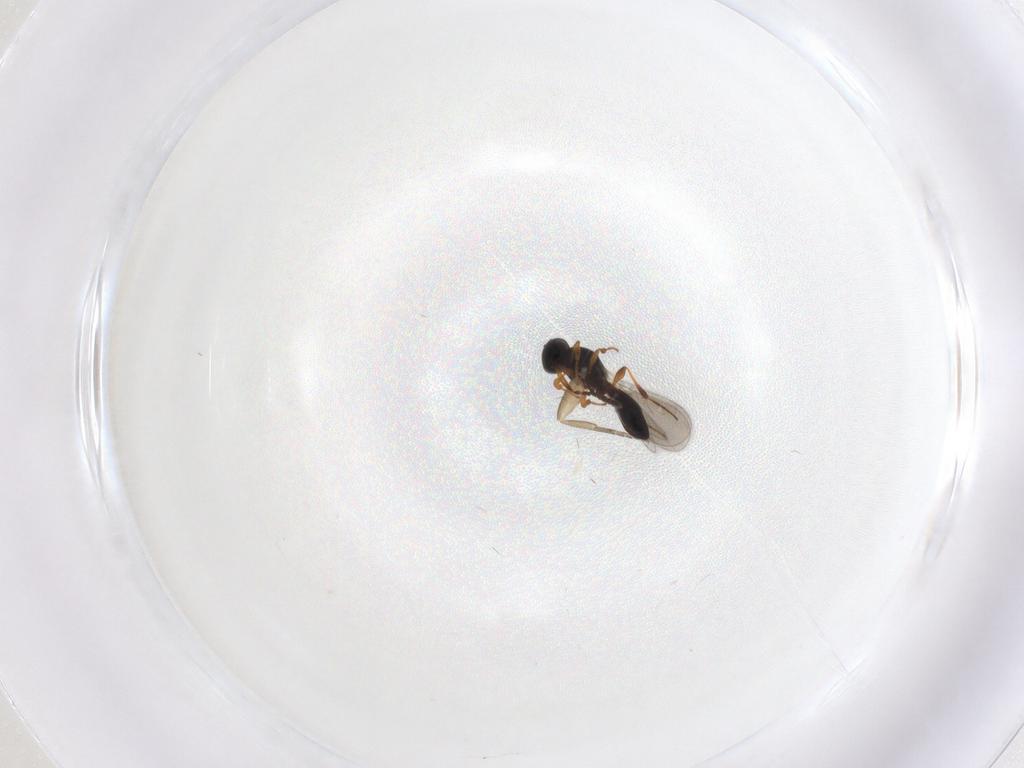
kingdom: Animalia
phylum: Arthropoda
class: Insecta
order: Diptera
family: Phoridae
